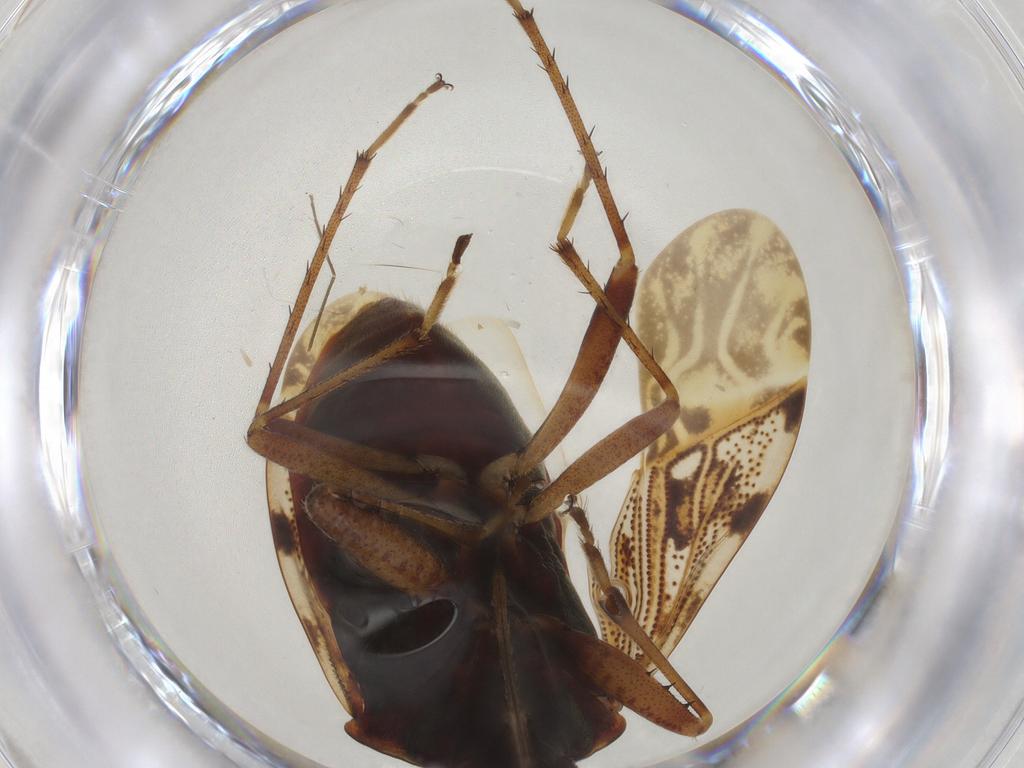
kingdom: Animalia
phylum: Arthropoda
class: Insecta
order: Hemiptera
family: Rhyparochromidae
